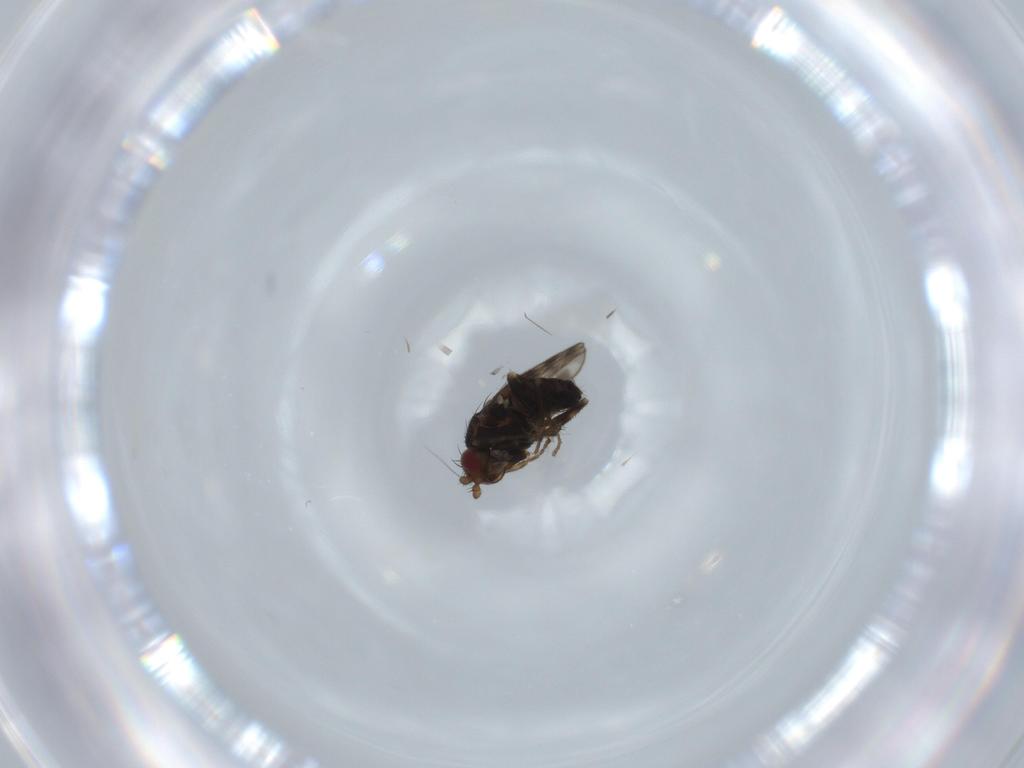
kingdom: Animalia
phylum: Arthropoda
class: Insecta
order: Diptera
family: Sphaeroceridae
